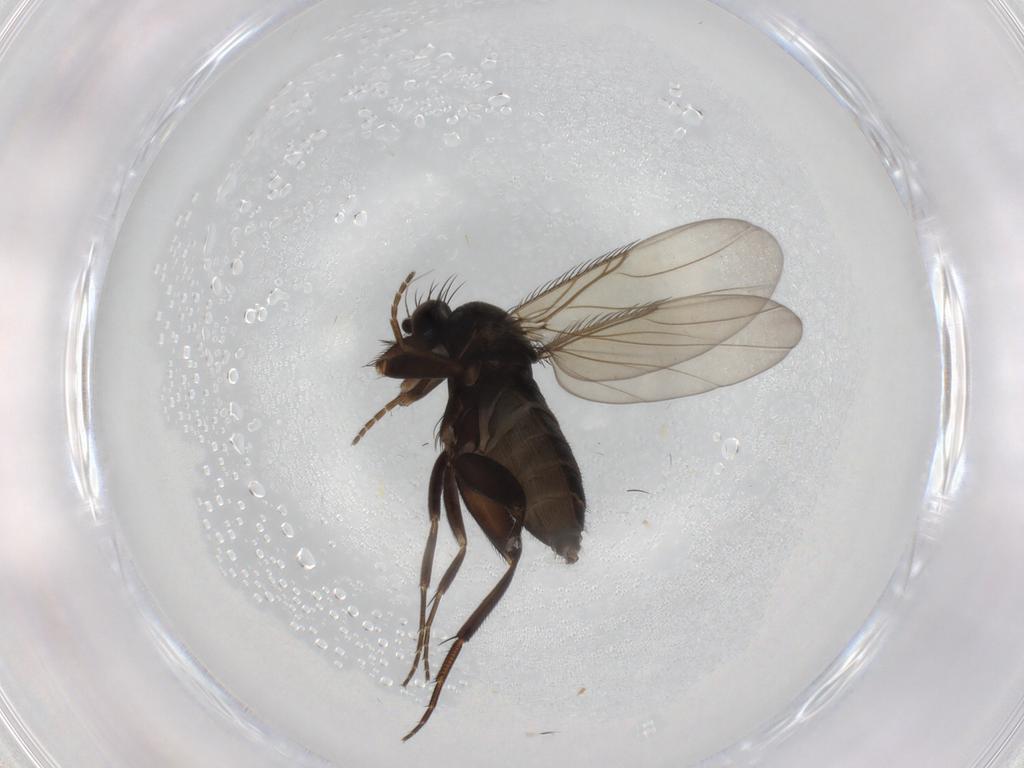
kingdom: Animalia
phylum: Arthropoda
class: Insecta
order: Diptera
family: Phoridae
